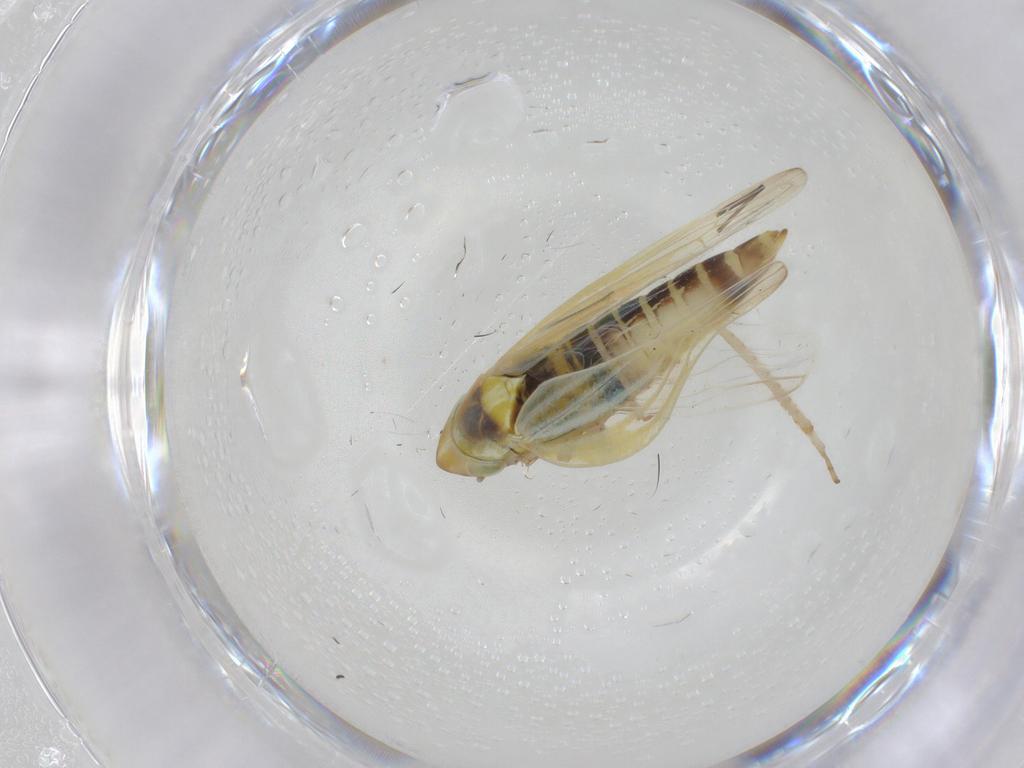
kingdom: Animalia
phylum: Arthropoda
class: Insecta
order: Hemiptera
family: Cicadellidae
